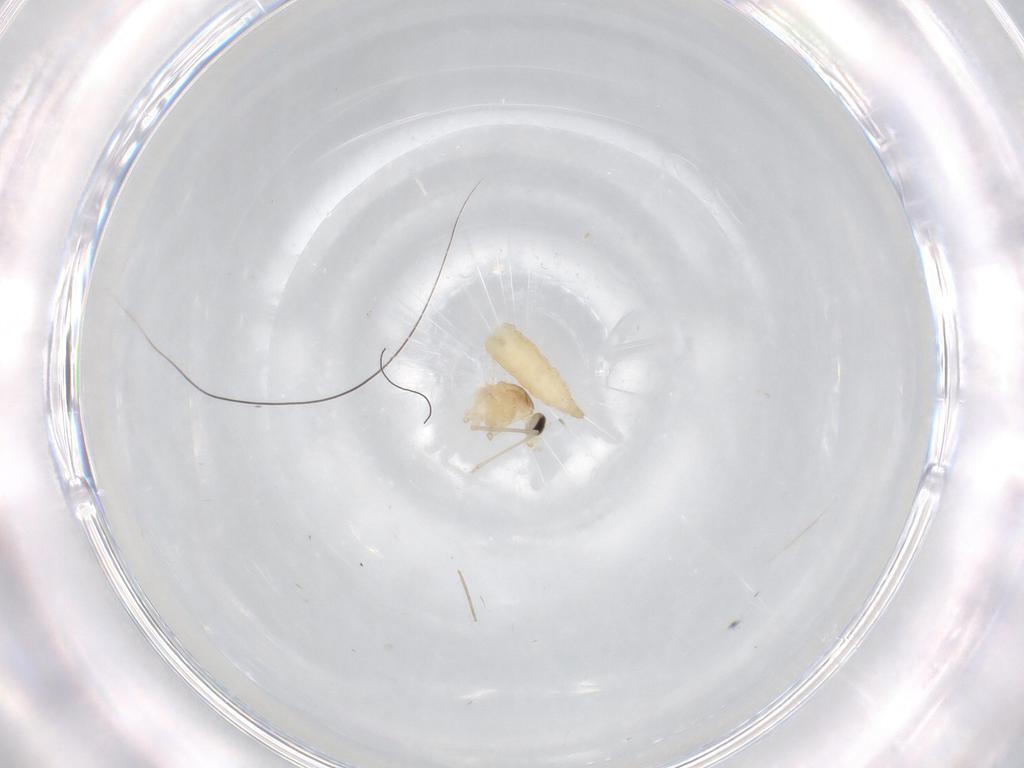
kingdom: Animalia
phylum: Arthropoda
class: Insecta
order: Diptera
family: Cecidomyiidae
